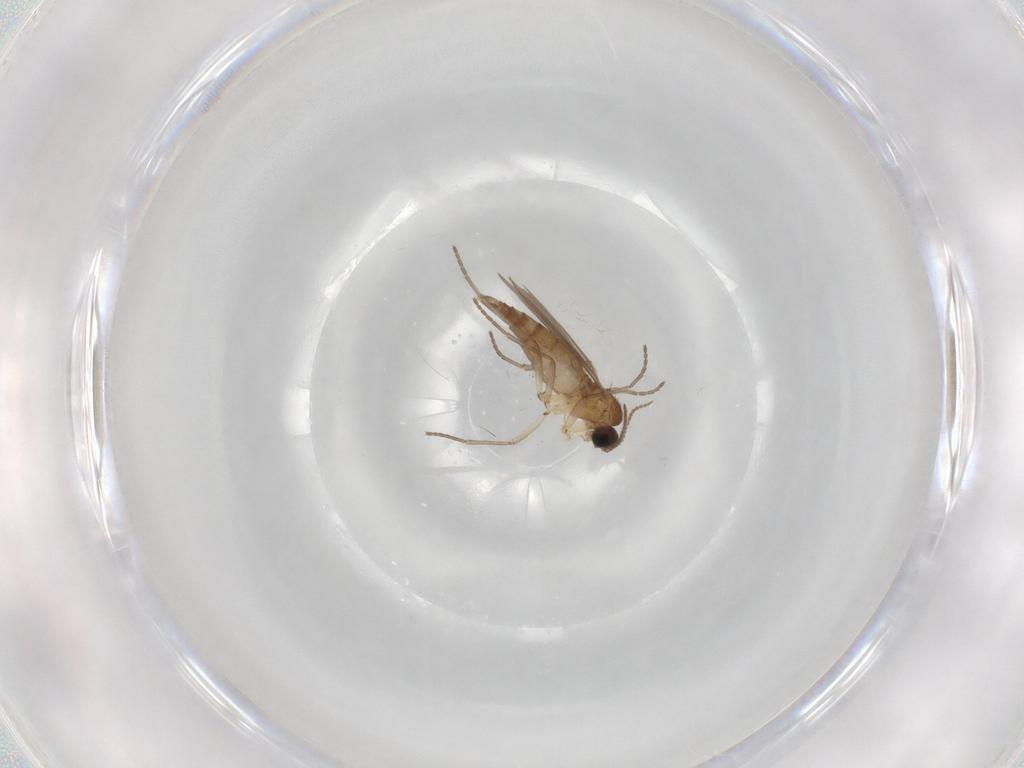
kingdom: Animalia
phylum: Arthropoda
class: Insecta
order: Diptera
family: Sciaridae
